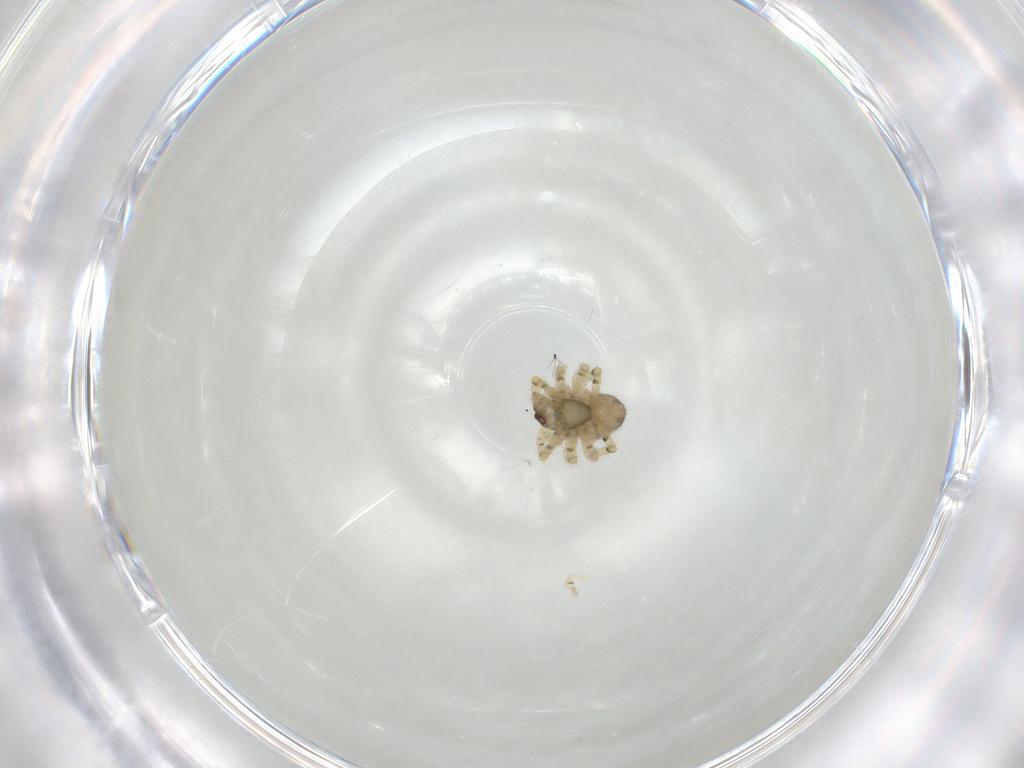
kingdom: Animalia
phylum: Arthropoda
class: Arachnida
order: Araneae
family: Theridiidae
